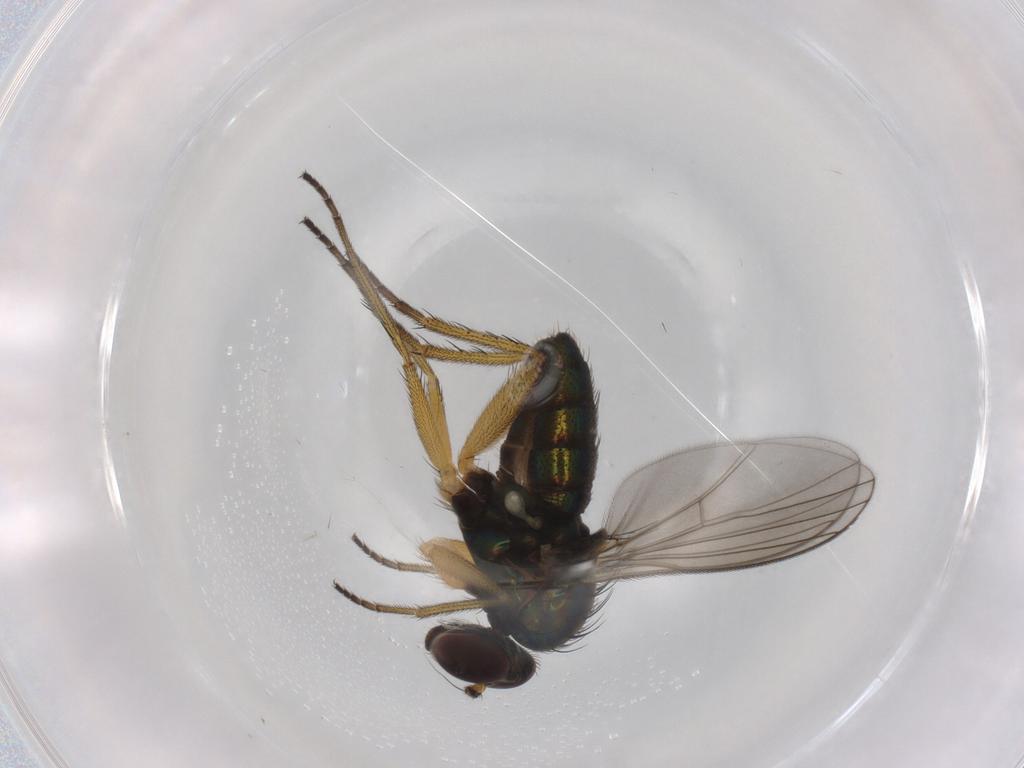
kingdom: Animalia
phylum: Arthropoda
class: Insecta
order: Diptera
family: Dolichopodidae
